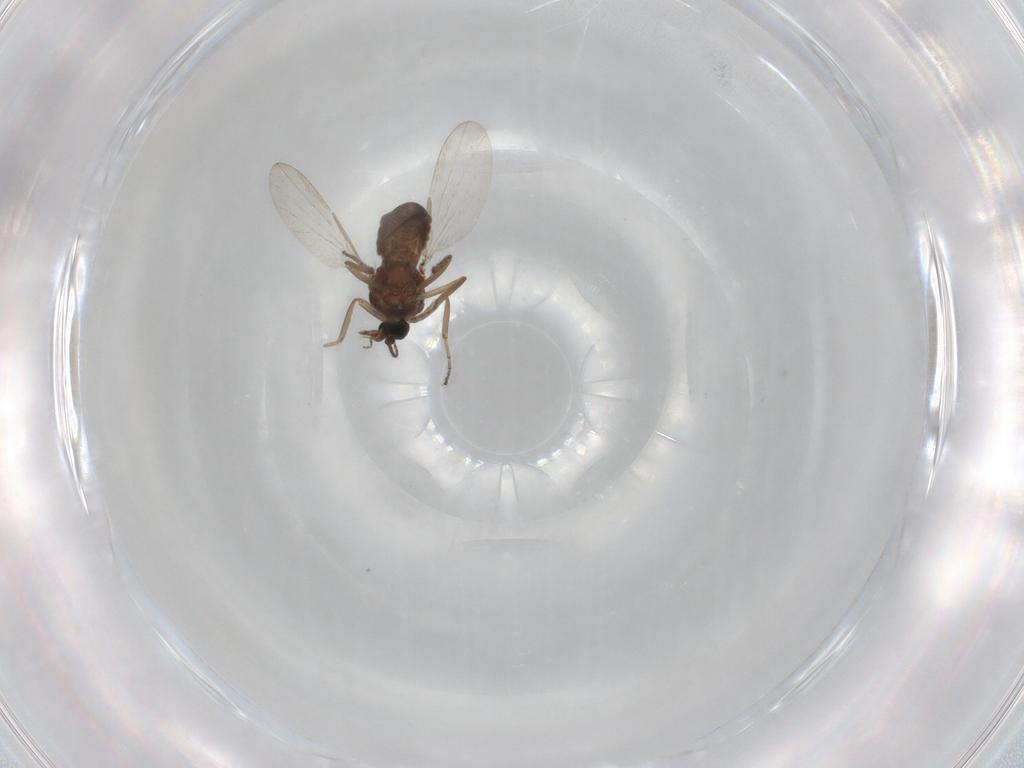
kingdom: Animalia
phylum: Arthropoda
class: Insecta
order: Diptera
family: Ceratopogonidae
